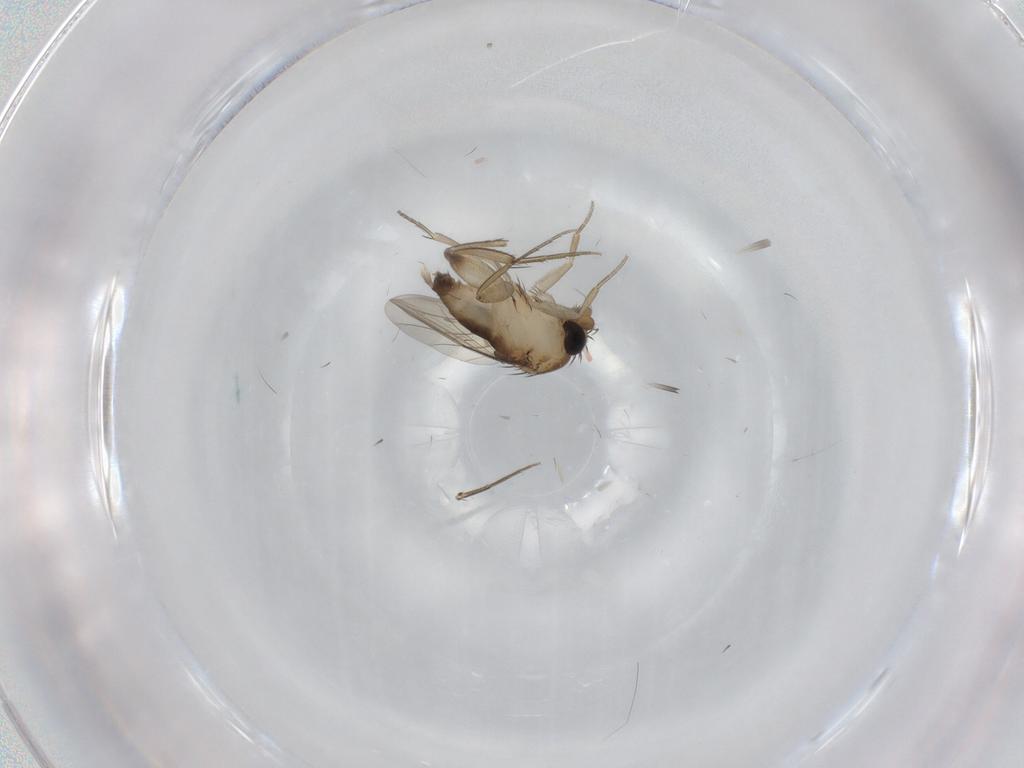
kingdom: Animalia
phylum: Arthropoda
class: Insecta
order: Diptera
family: Phoridae
